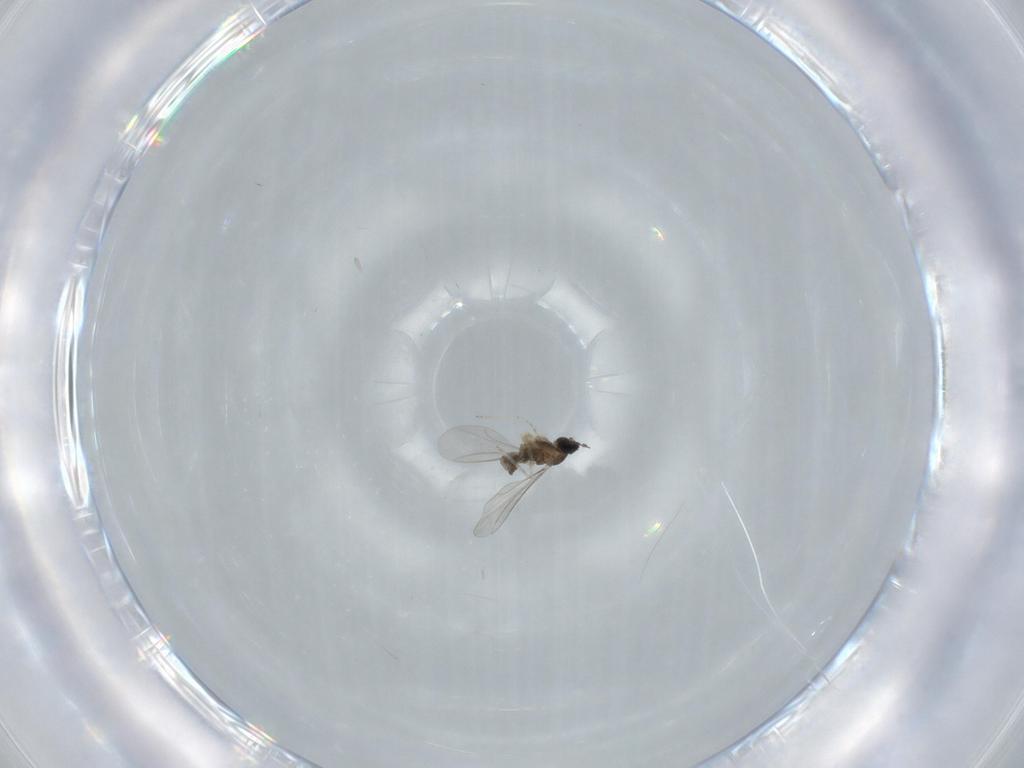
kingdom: Animalia
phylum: Arthropoda
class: Insecta
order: Diptera
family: Cecidomyiidae
